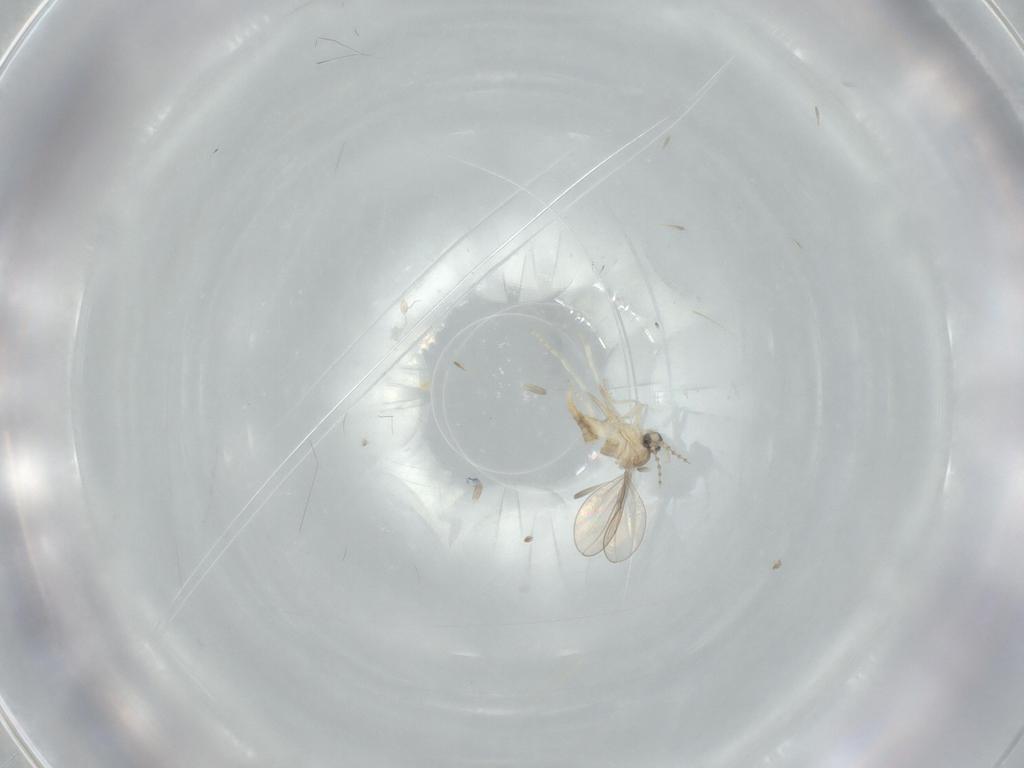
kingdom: Animalia
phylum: Arthropoda
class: Insecta
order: Diptera
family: Cecidomyiidae
